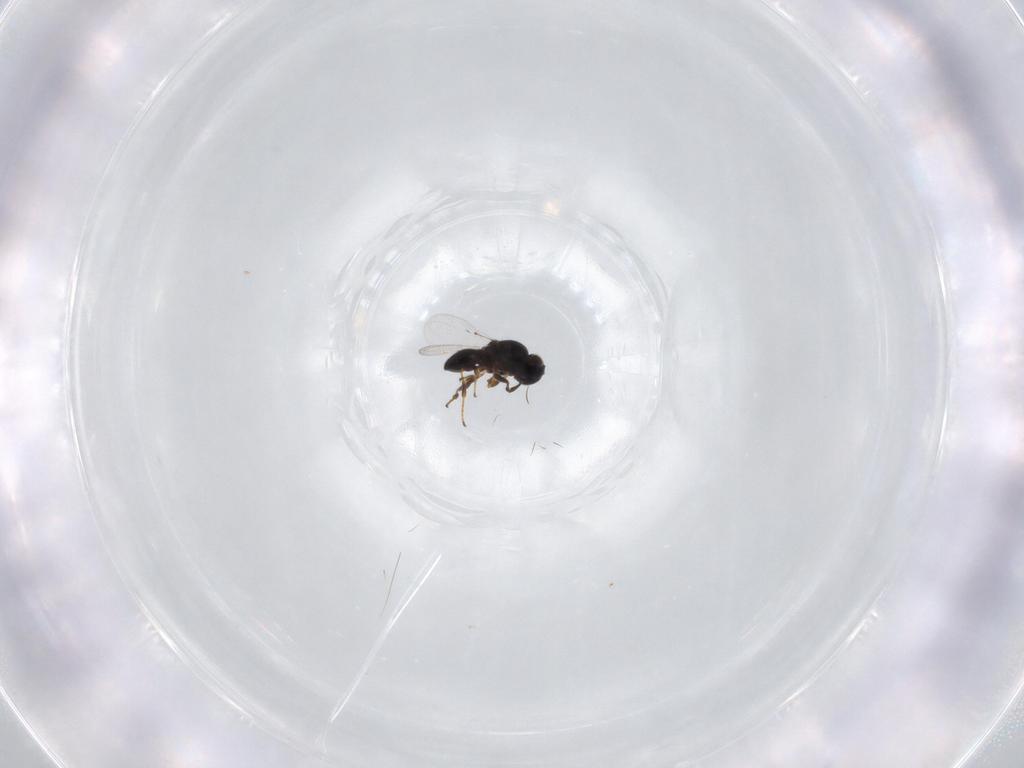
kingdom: Animalia
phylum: Arthropoda
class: Insecta
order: Hymenoptera
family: Platygastridae
